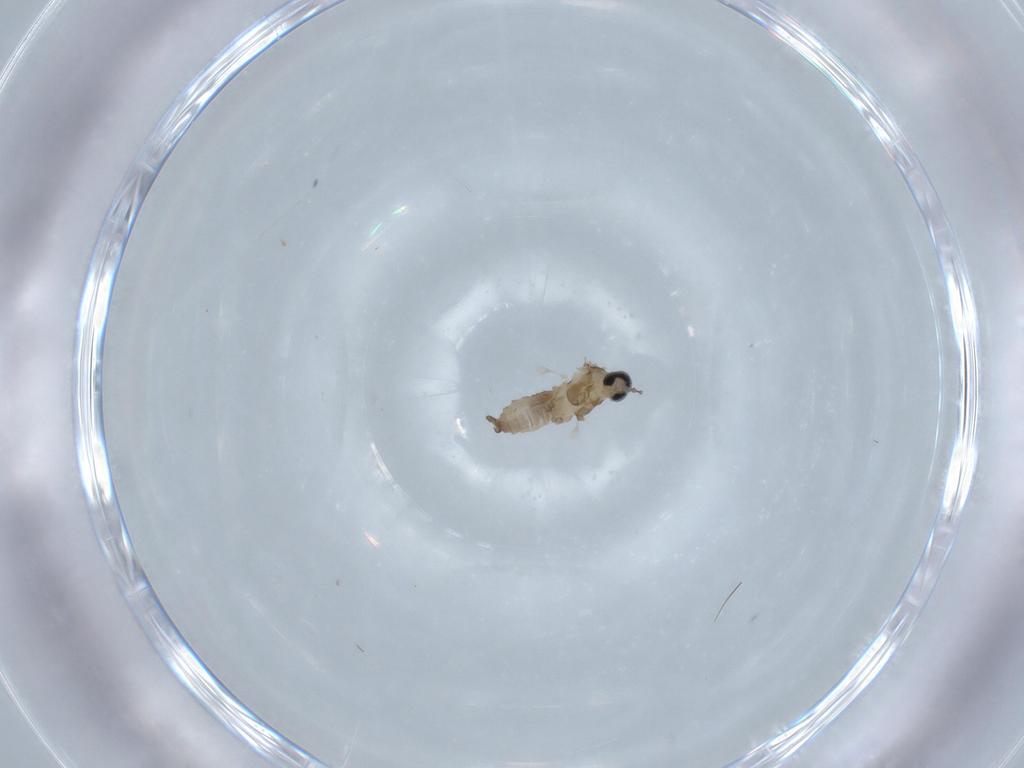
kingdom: Animalia
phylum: Arthropoda
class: Insecta
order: Diptera
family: Cecidomyiidae
